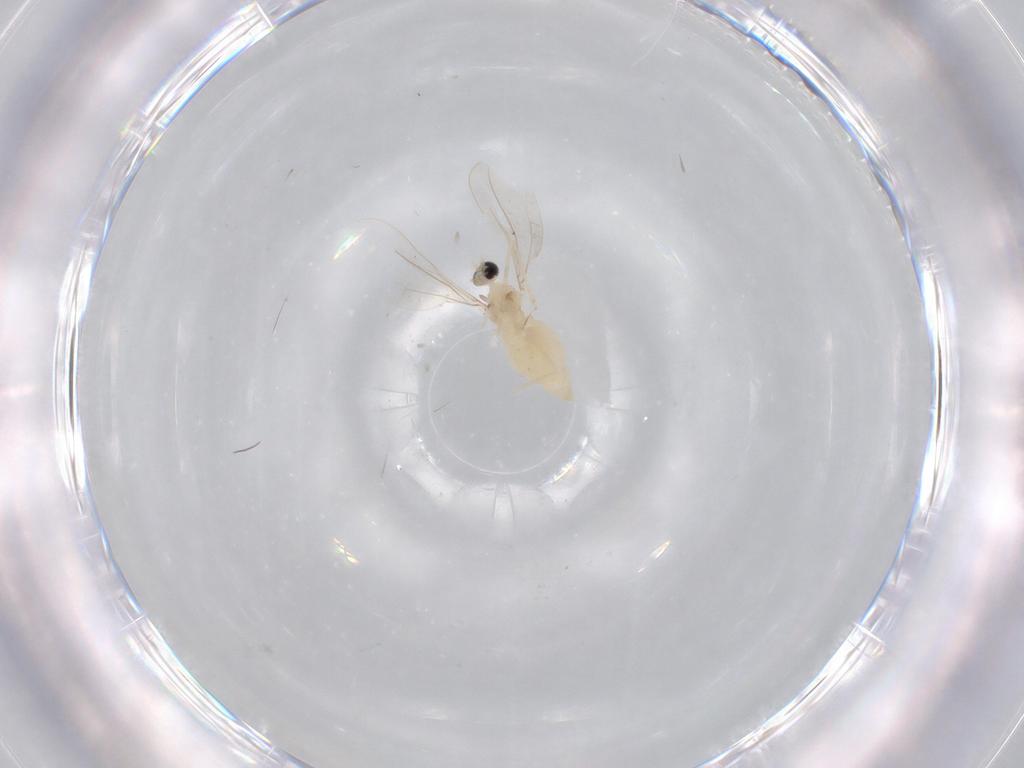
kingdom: Animalia
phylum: Arthropoda
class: Insecta
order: Diptera
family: Cecidomyiidae
